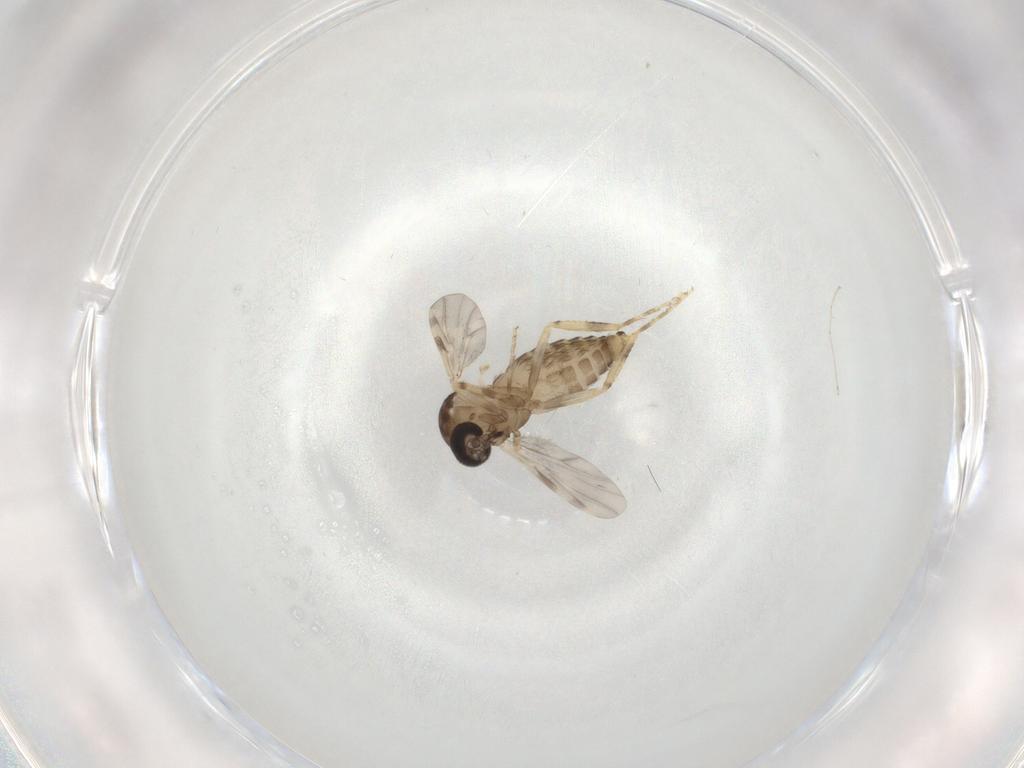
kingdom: Animalia
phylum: Arthropoda
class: Insecta
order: Diptera
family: Ceratopogonidae
